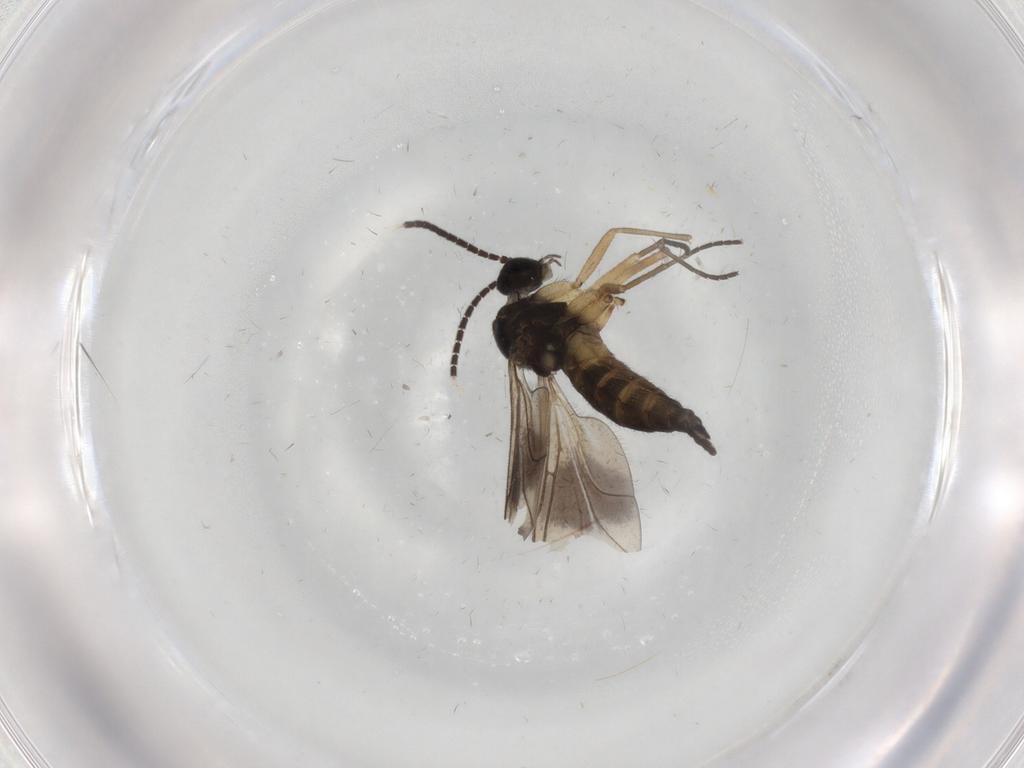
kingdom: Animalia
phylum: Arthropoda
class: Insecta
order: Diptera
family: Sciaridae
